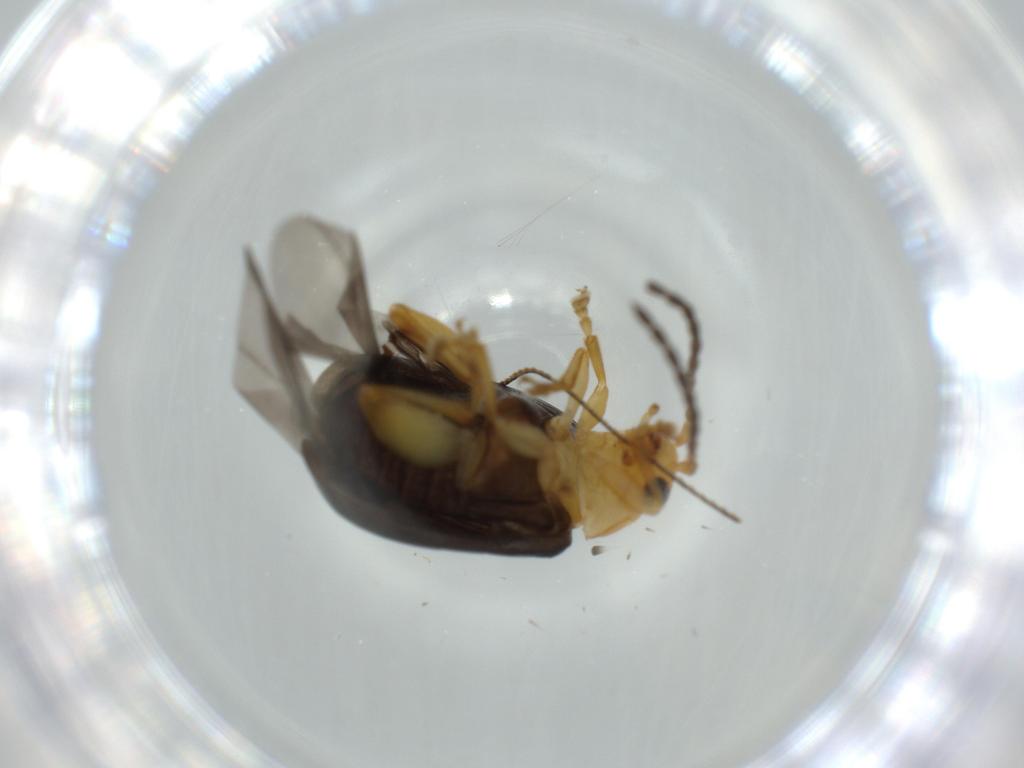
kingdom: Animalia
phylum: Arthropoda
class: Insecta
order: Coleoptera
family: Chrysomelidae
